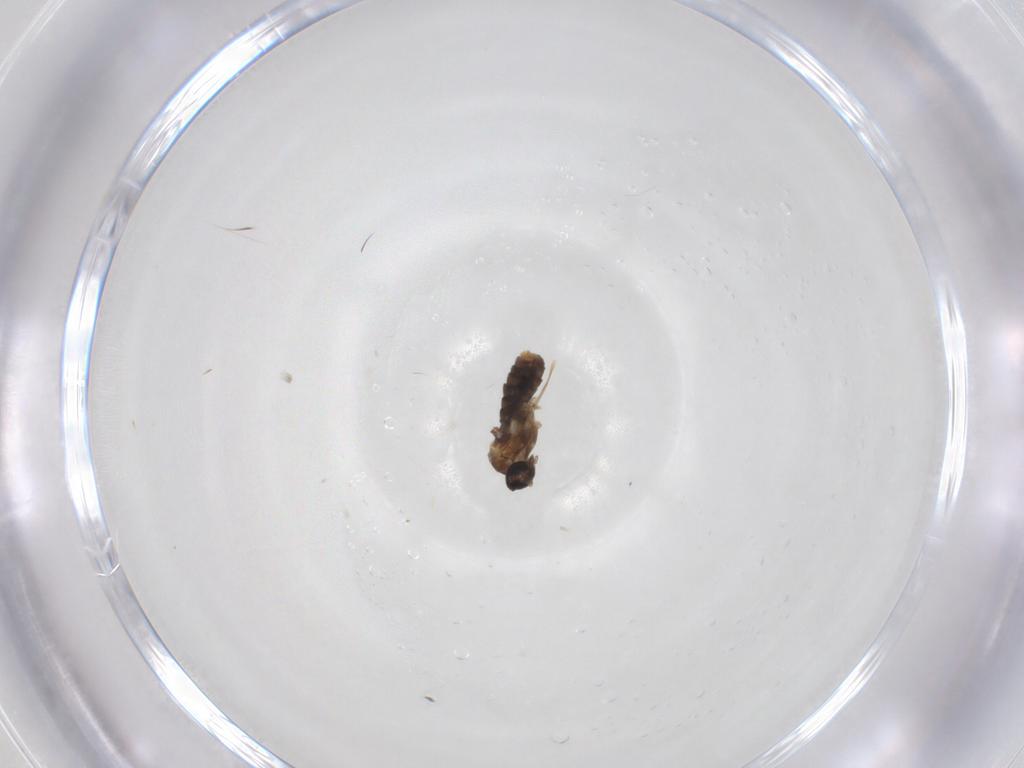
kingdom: Animalia
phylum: Arthropoda
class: Insecta
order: Diptera
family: Cecidomyiidae
